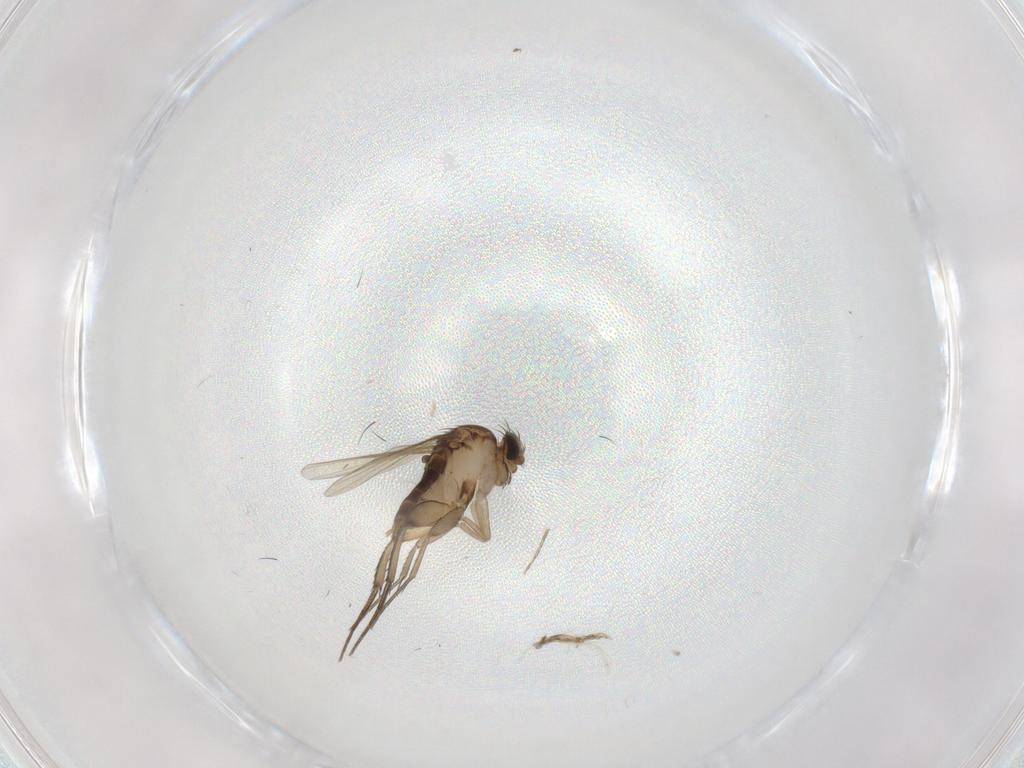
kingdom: Animalia
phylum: Arthropoda
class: Insecta
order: Diptera
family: Phoridae
